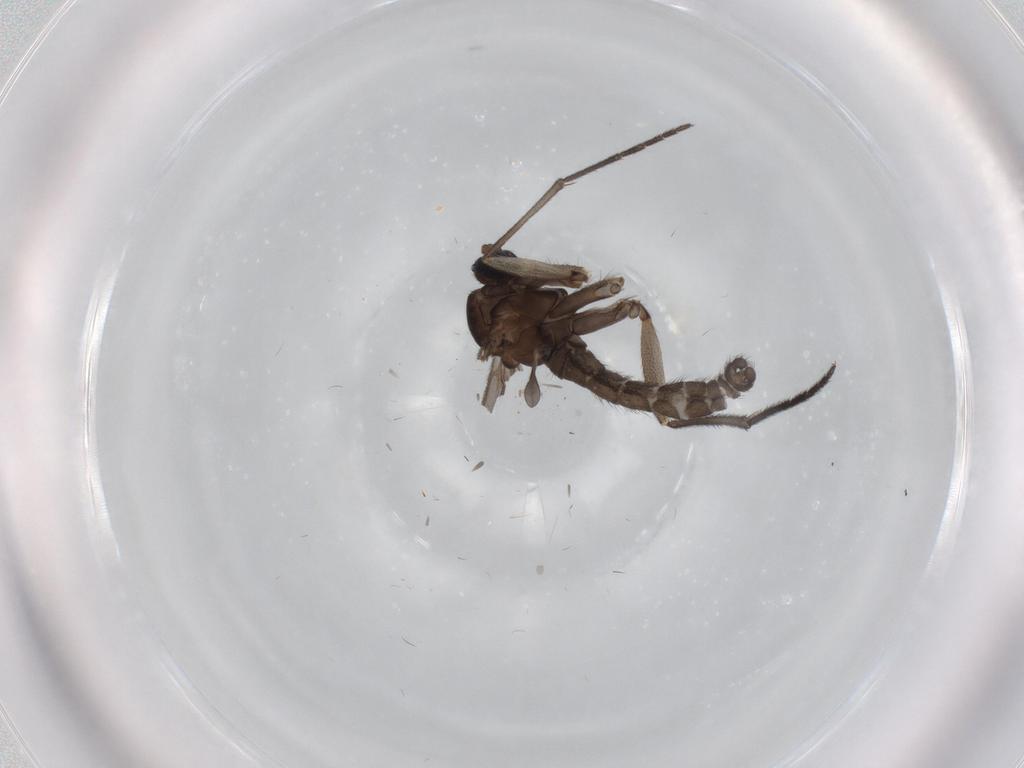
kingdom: Animalia
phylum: Arthropoda
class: Insecta
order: Diptera
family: Sciaridae
